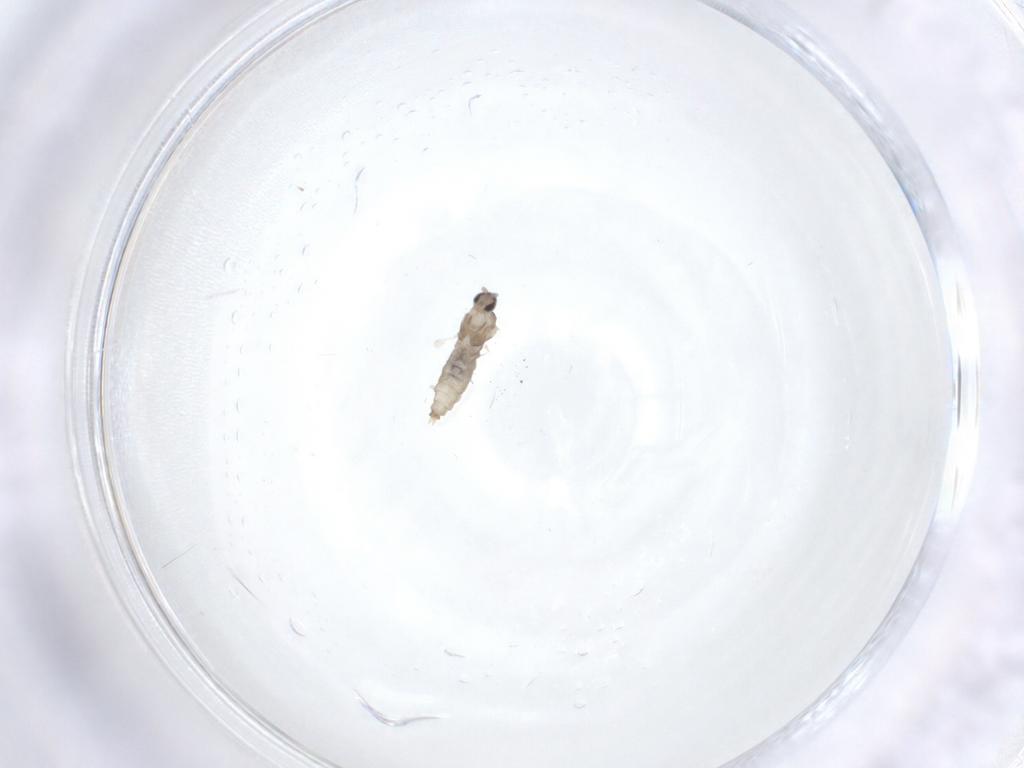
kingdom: Animalia
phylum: Arthropoda
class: Insecta
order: Diptera
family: Cecidomyiidae
